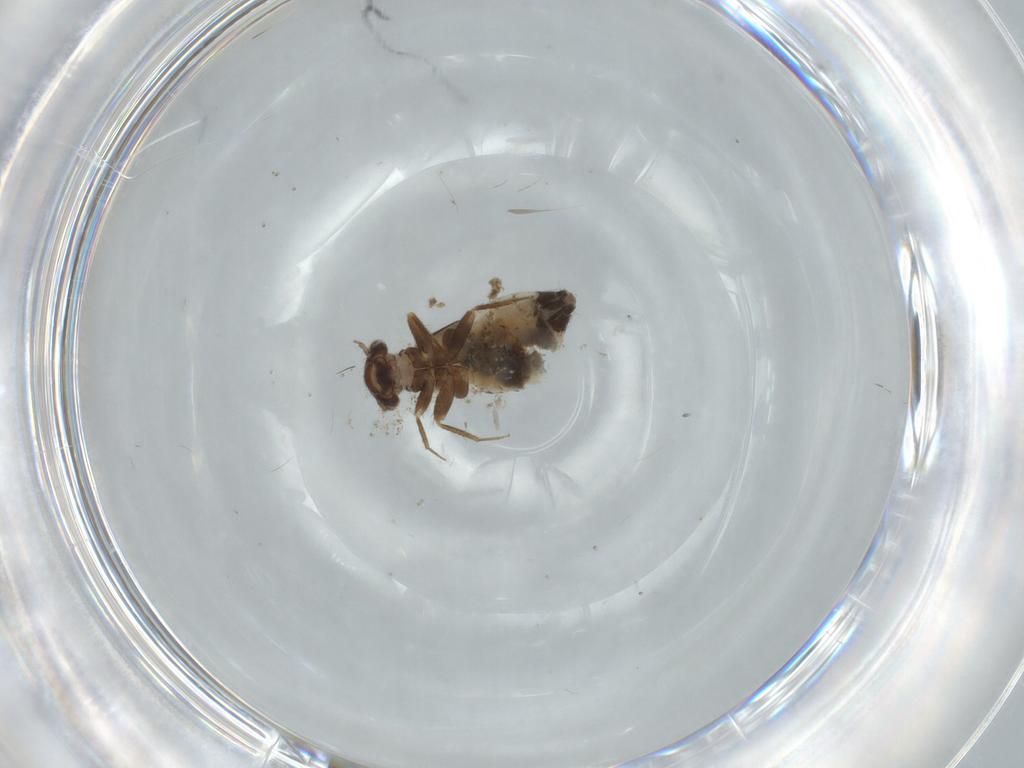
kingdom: Animalia
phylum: Arthropoda
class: Insecta
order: Psocodea
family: Lepidopsocidae
